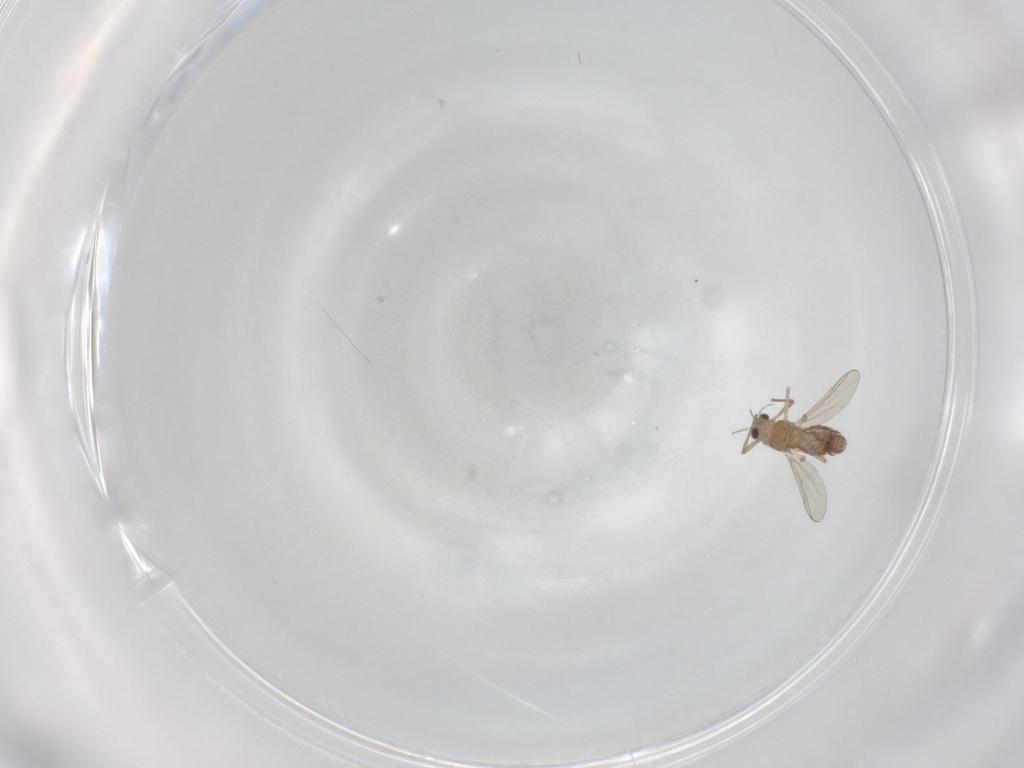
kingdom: Animalia
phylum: Arthropoda
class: Insecta
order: Diptera
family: Chironomidae
